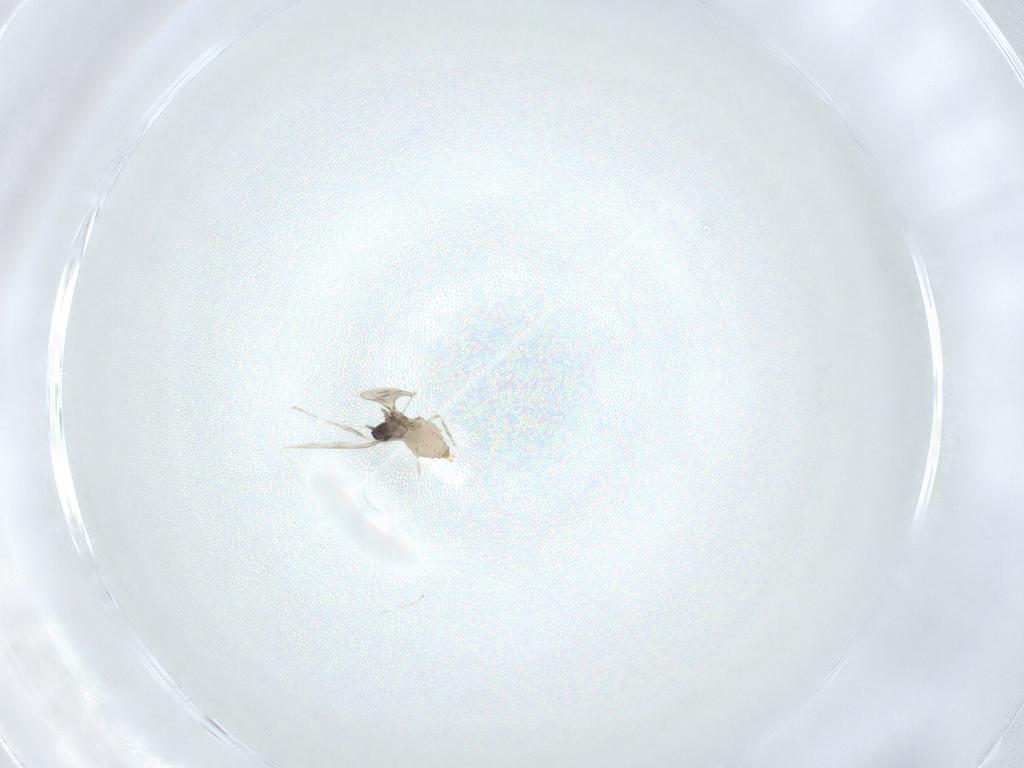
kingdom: Animalia
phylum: Arthropoda
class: Insecta
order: Diptera
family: Cecidomyiidae
